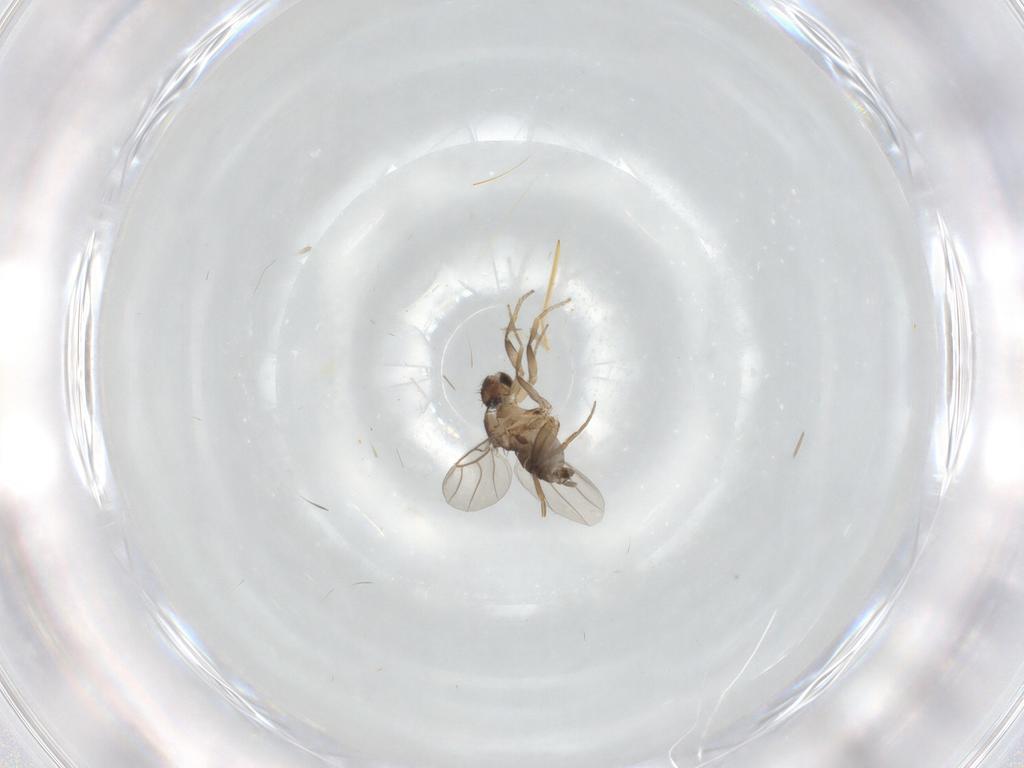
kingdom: Animalia
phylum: Arthropoda
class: Insecta
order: Diptera
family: Phoridae
